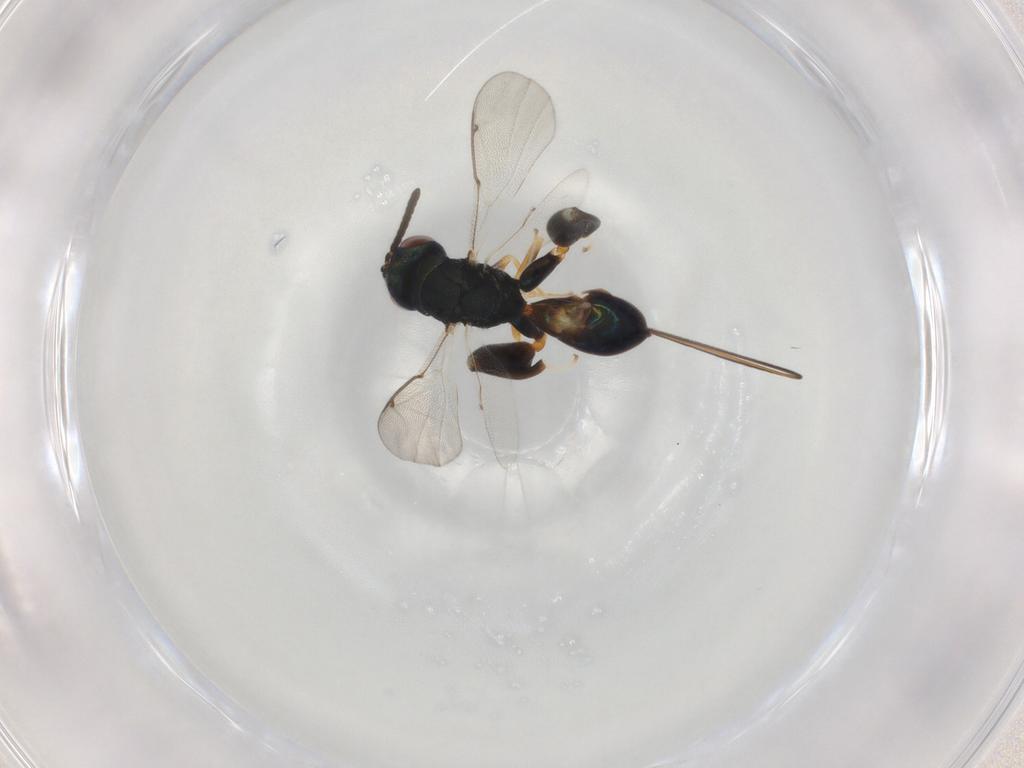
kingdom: Animalia
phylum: Arthropoda
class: Insecta
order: Hymenoptera
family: Torymidae
